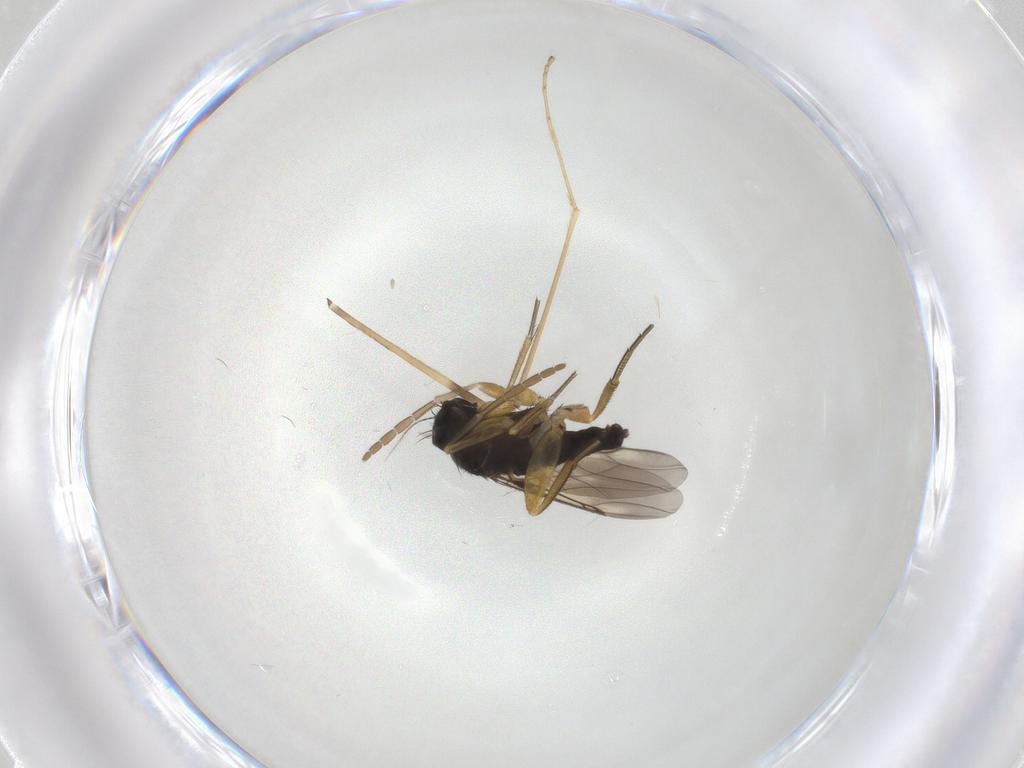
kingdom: Animalia
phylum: Arthropoda
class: Insecta
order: Diptera
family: Limoniidae
